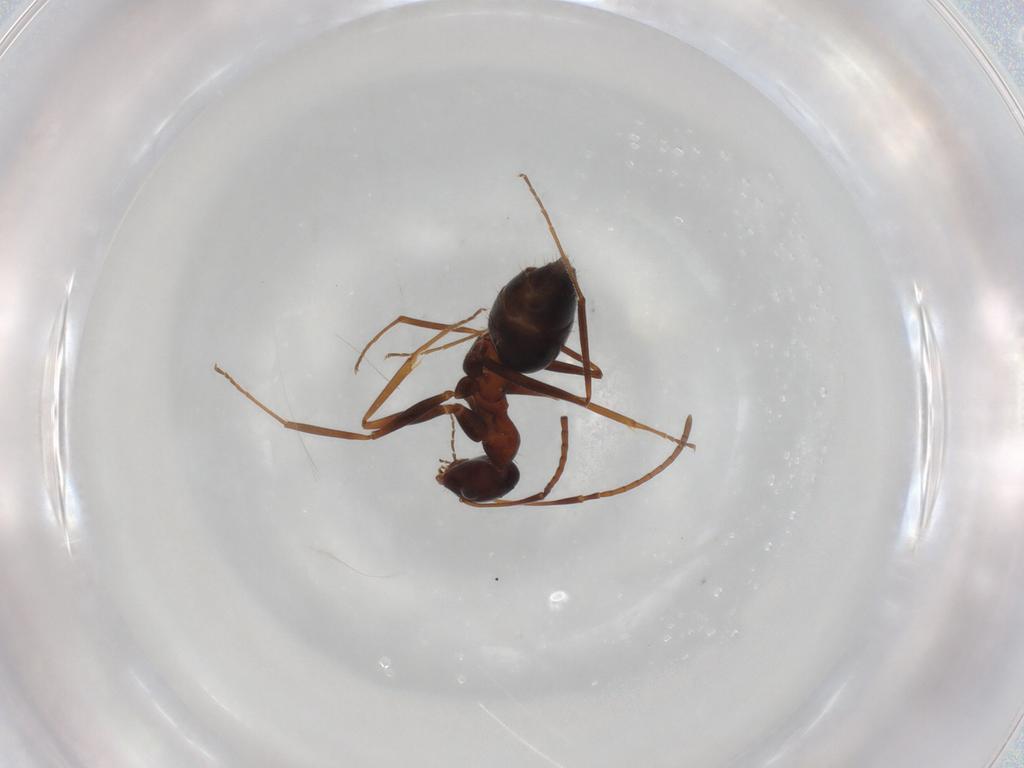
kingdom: Animalia
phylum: Arthropoda
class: Insecta
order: Hymenoptera
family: Formicidae
